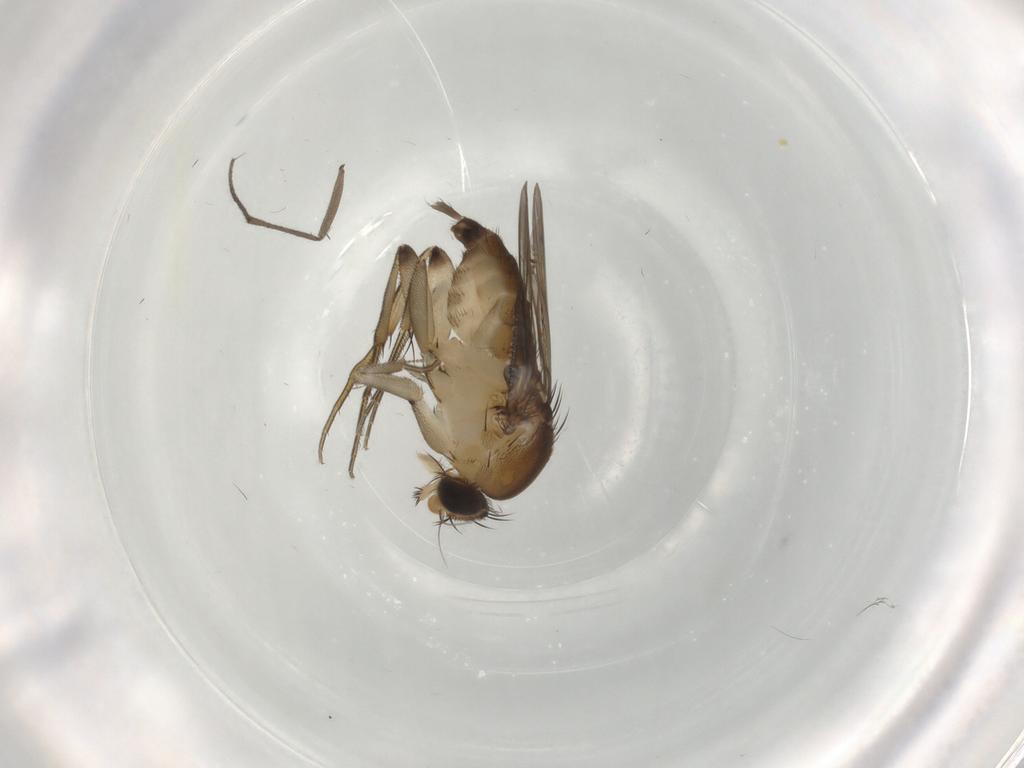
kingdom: Animalia
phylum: Arthropoda
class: Insecta
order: Diptera
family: Sciaridae
